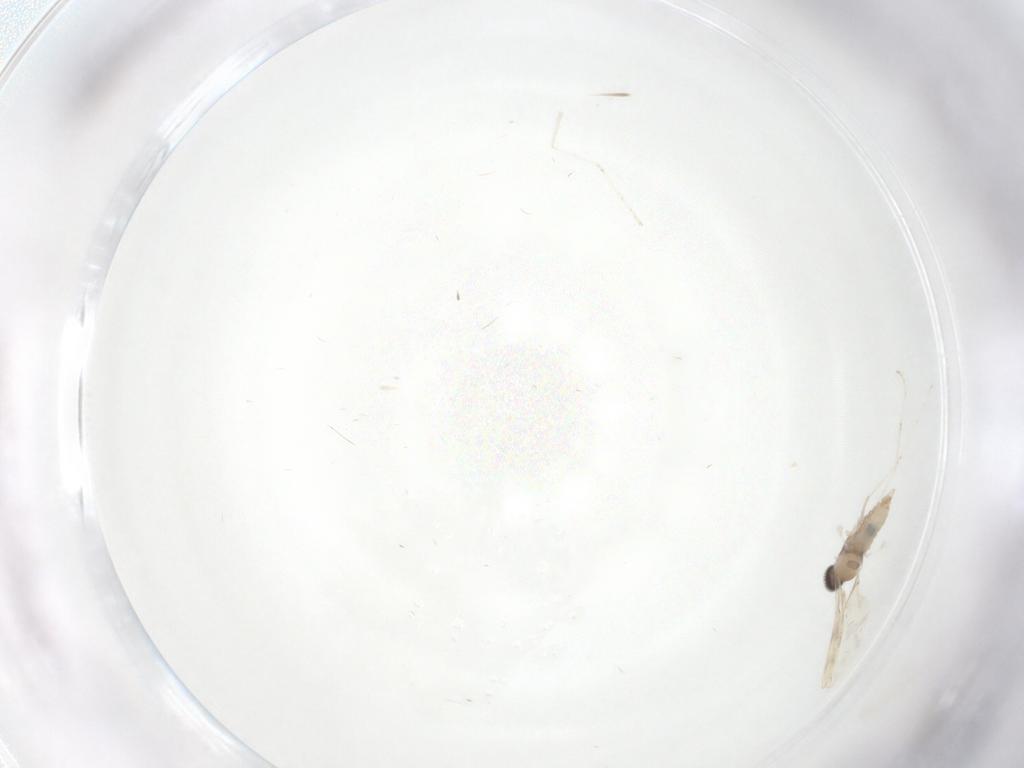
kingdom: Animalia
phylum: Arthropoda
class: Insecta
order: Diptera
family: Cecidomyiidae
